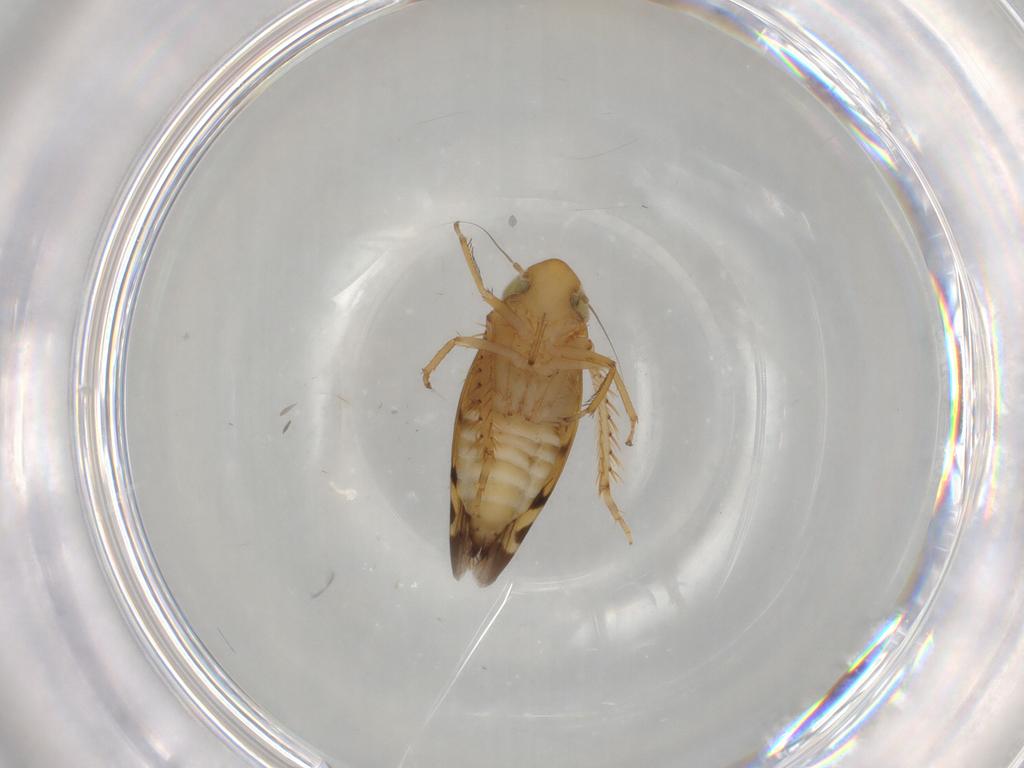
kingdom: Animalia
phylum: Arthropoda
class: Insecta
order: Hemiptera
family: Cicadellidae
